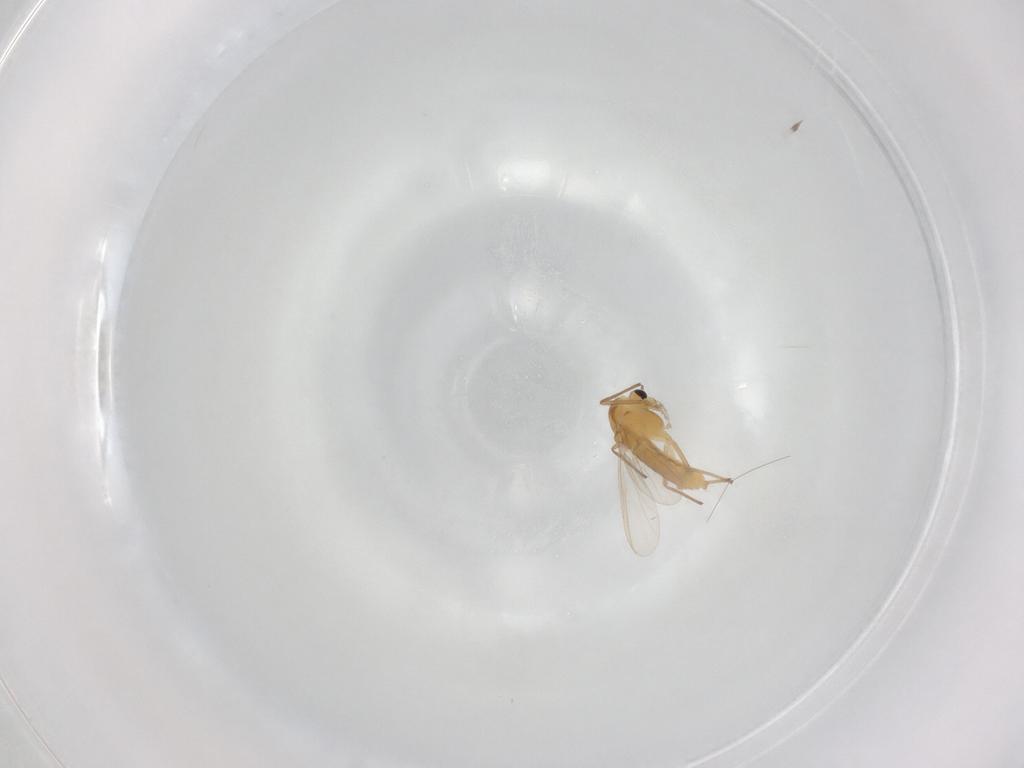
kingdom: Animalia
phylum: Arthropoda
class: Insecta
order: Diptera
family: Chironomidae
